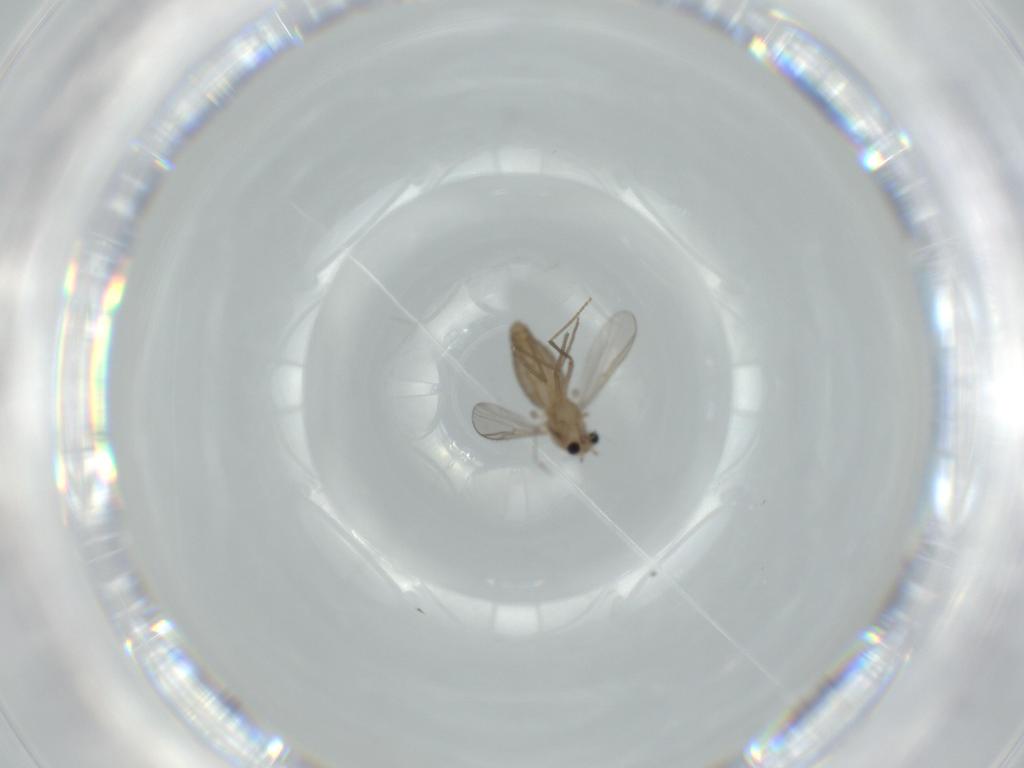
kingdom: Animalia
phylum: Arthropoda
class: Insecta
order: Diptera
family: Chironomidae
